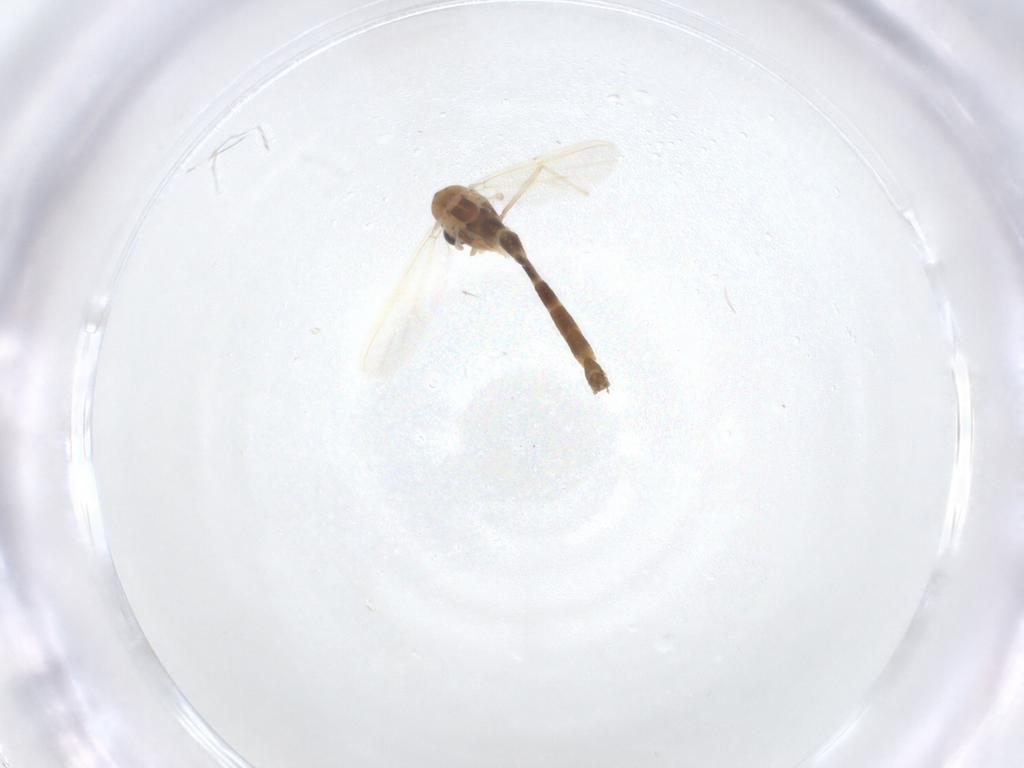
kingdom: Animalia
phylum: Arthropoda
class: Insecta
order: Diptera
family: Chironomidae
